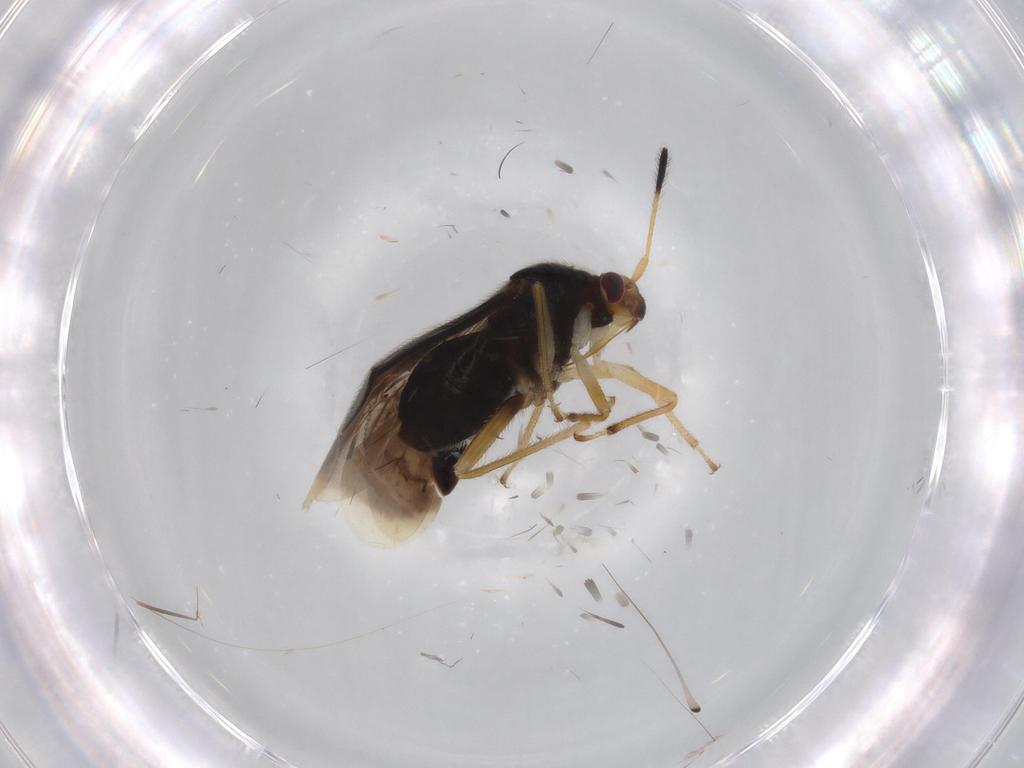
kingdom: Animalia
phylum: Arthropoda
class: Insecta
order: Hemiptera
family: Miridae
